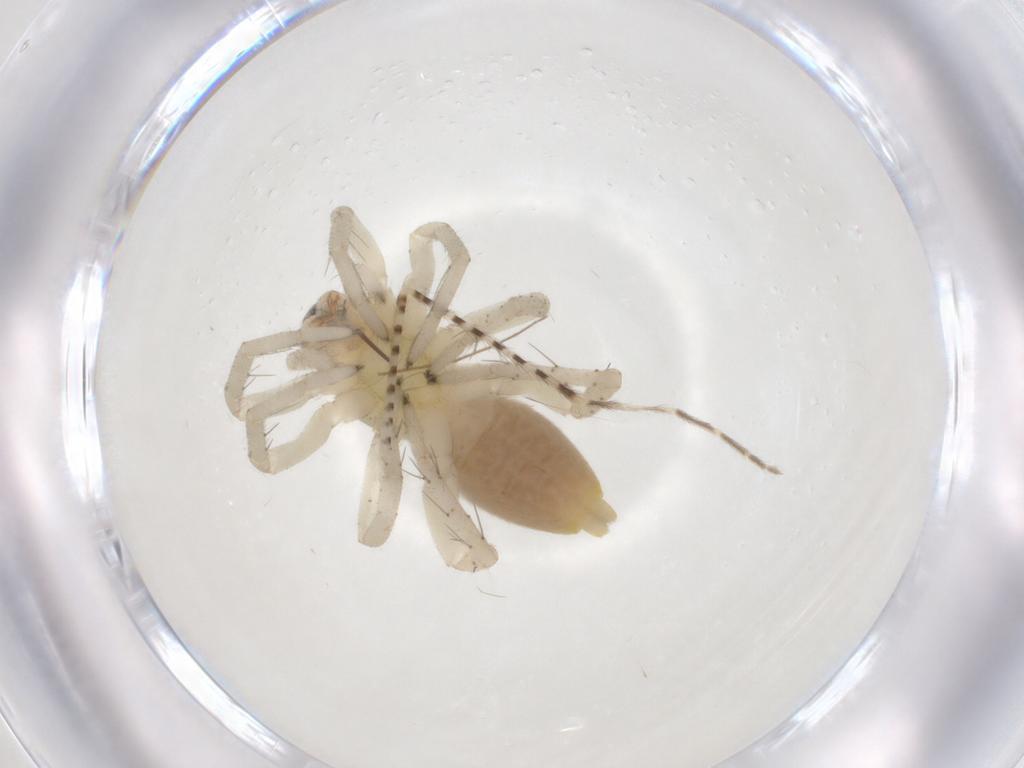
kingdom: Animalia
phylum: Arthropoda
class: Arachnida
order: Araneae
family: Clubionidae
